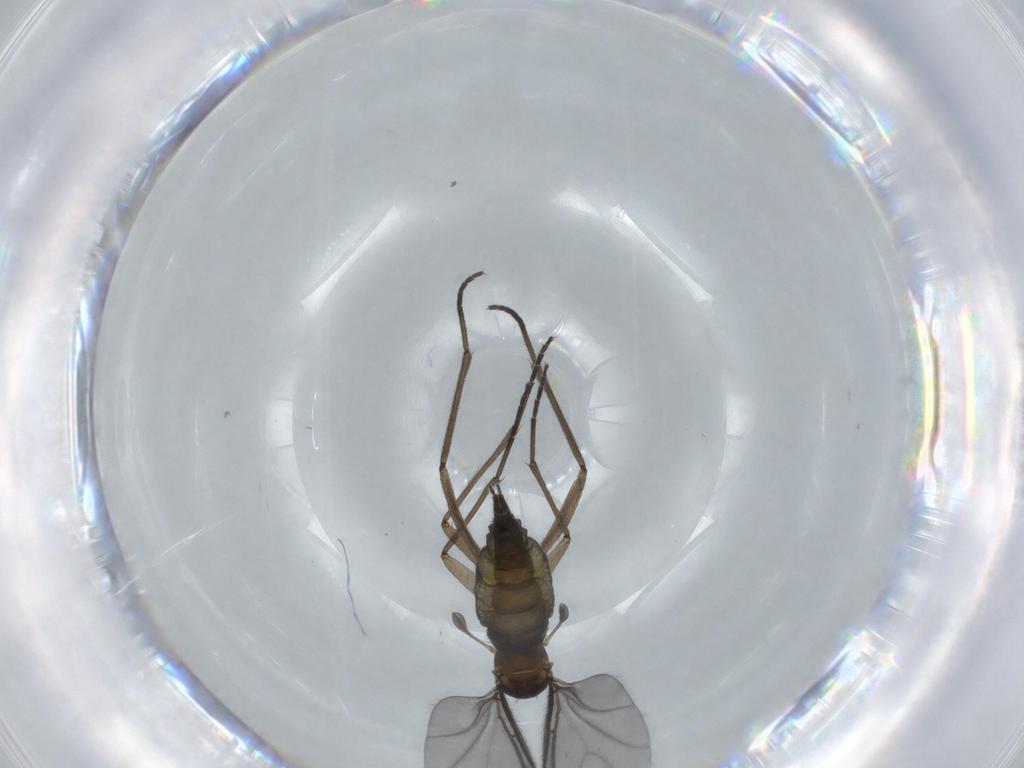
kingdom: Animalia
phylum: Arthropoda
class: Insecta
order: Diptera
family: Sciaridae
